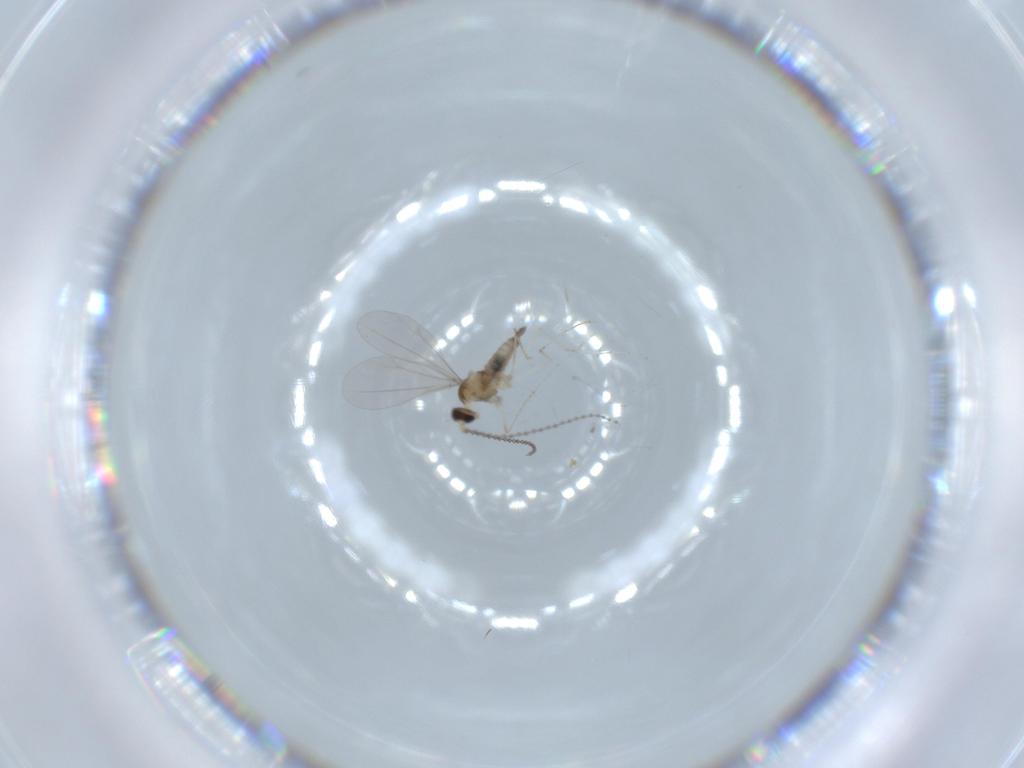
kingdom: Animalia
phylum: Arthropoda
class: Insecta
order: Diptera
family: Cecidomyiidae
